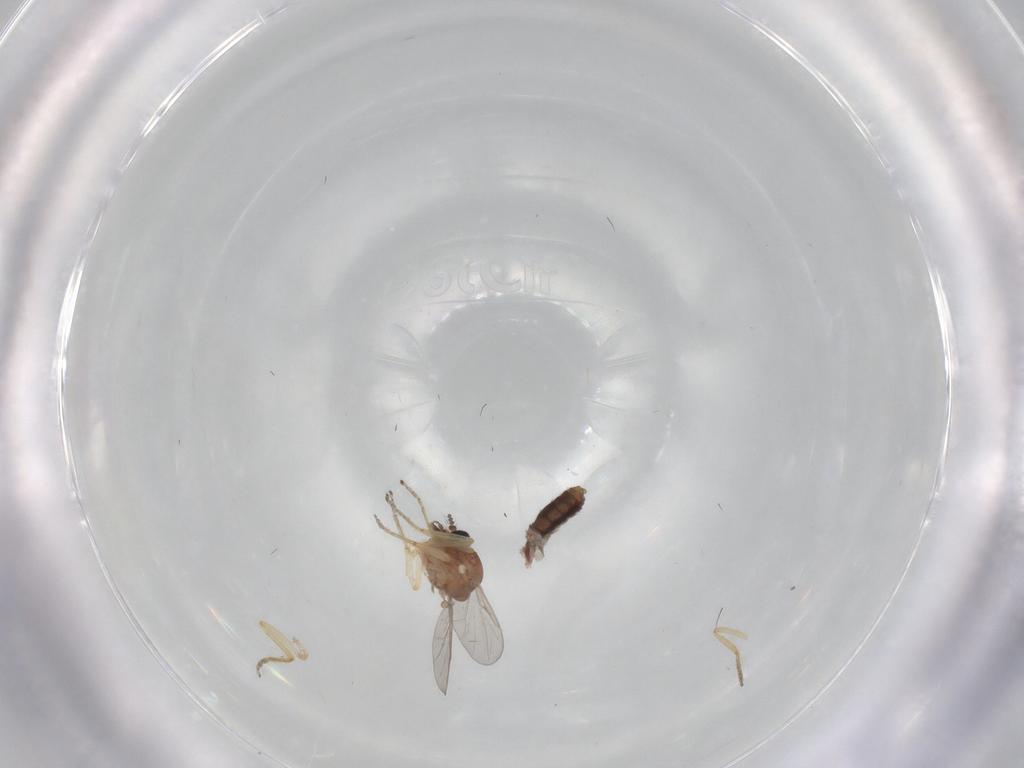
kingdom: Animalia
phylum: Arthropoda
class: Insecta
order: Diptera
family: Ceratopogonidae
